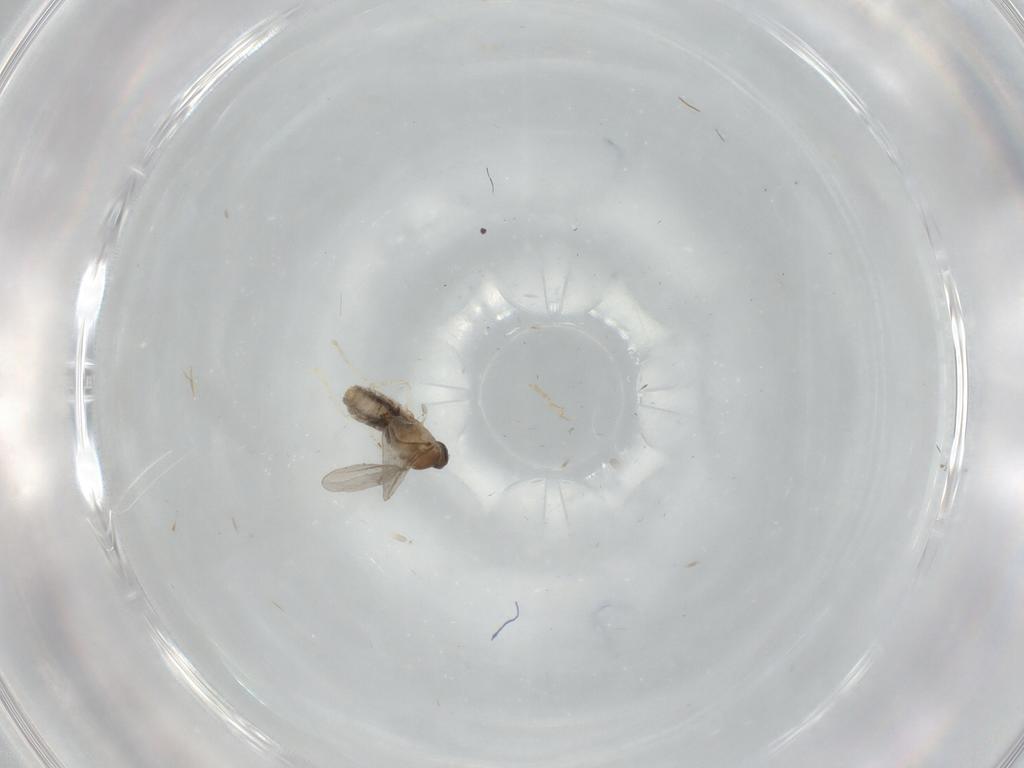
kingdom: Animalia
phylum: Arthropoda
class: Insecta
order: Diptera
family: Cecidomyiidae
